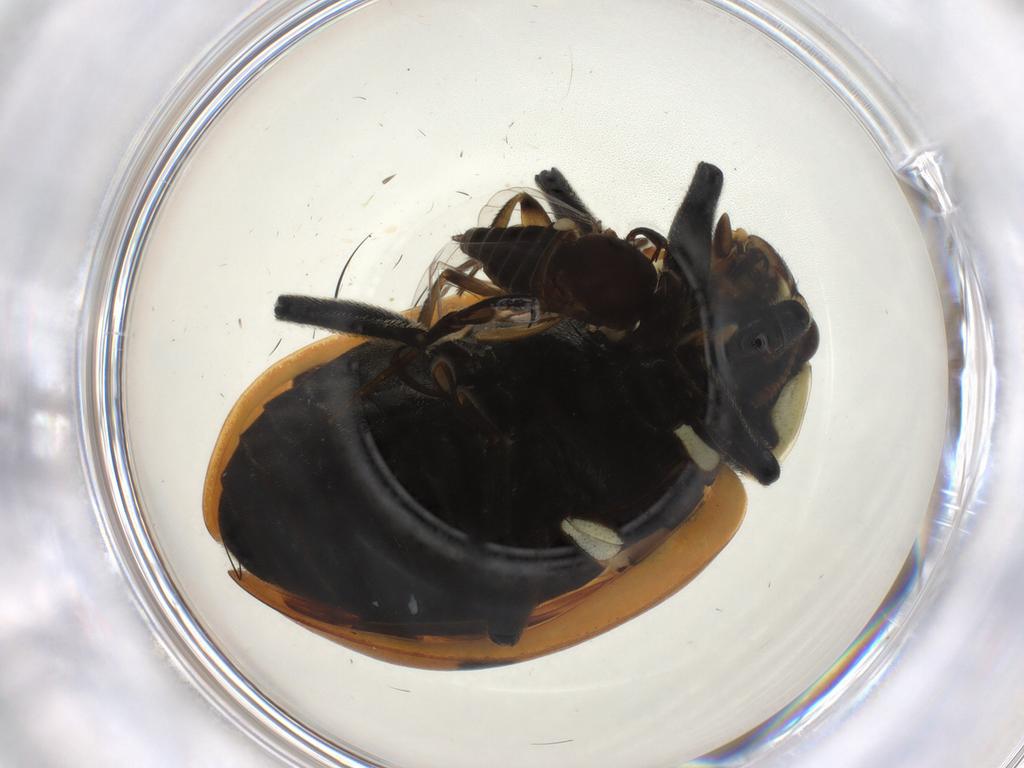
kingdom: Animalia
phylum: Arthropoda
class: Insecta
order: Coleoptera
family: Coccinellidae
